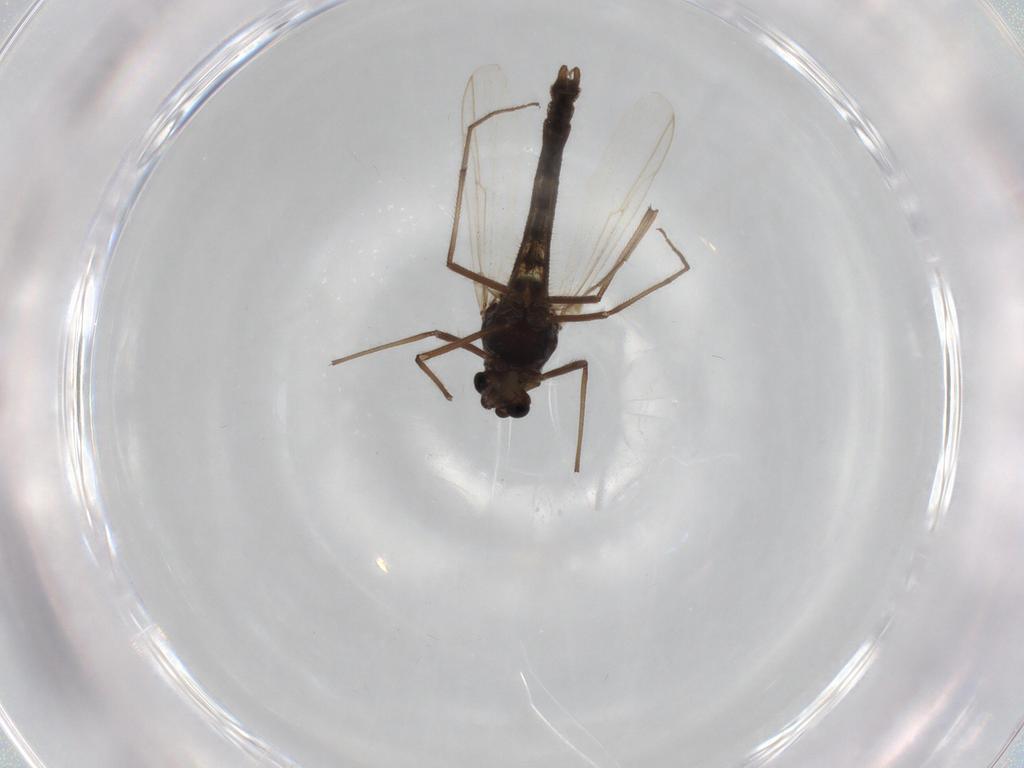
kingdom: Animalia
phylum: Arthropoda
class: Insecta
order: Diptera
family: Chironomidae
